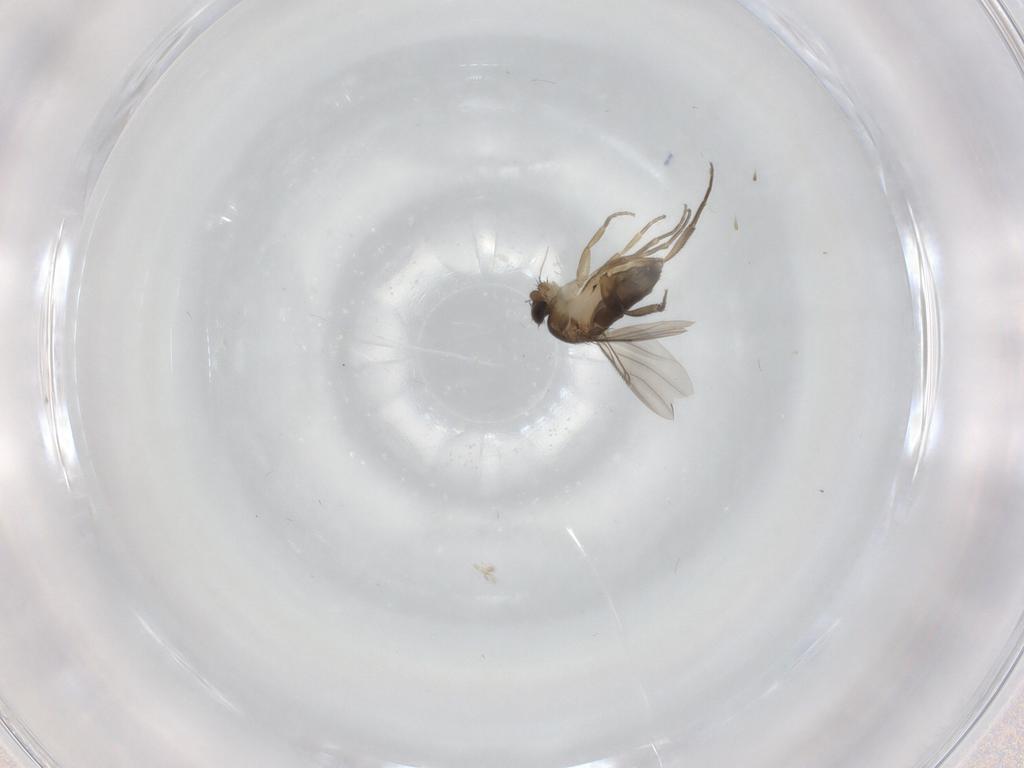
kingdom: Animalia
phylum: Arthropoda
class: Insecta
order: Diptera
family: Phoridae
